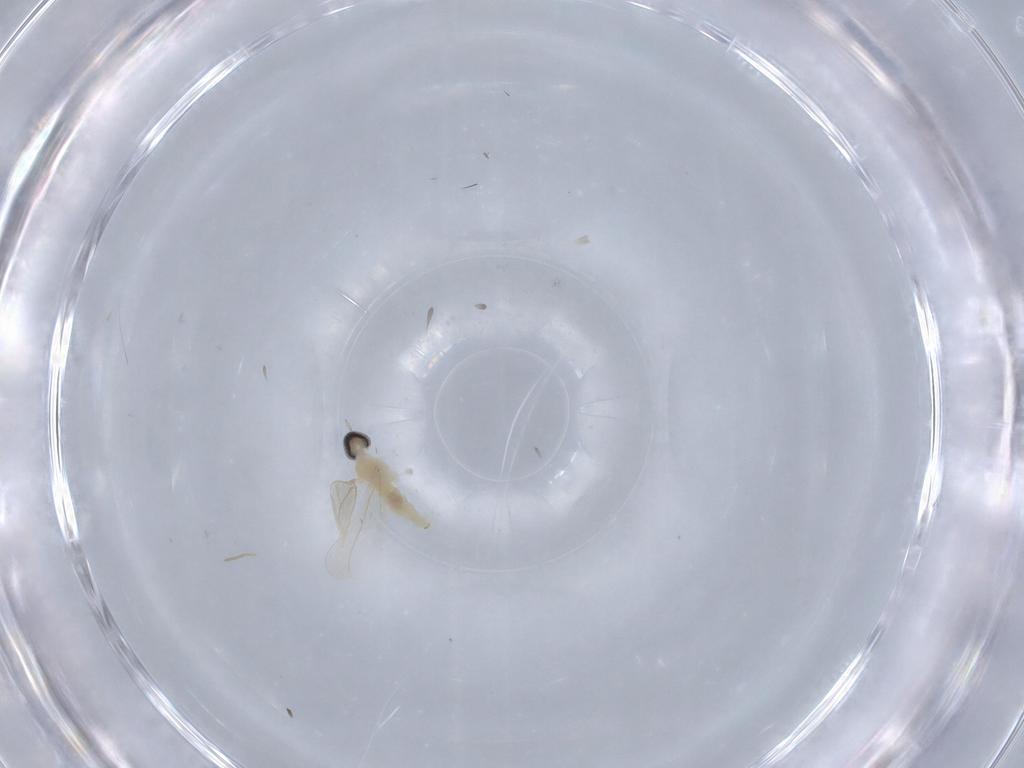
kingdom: Animalia
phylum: Arthropoda
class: Insecta
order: Diptera
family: Cecidomyiidae
